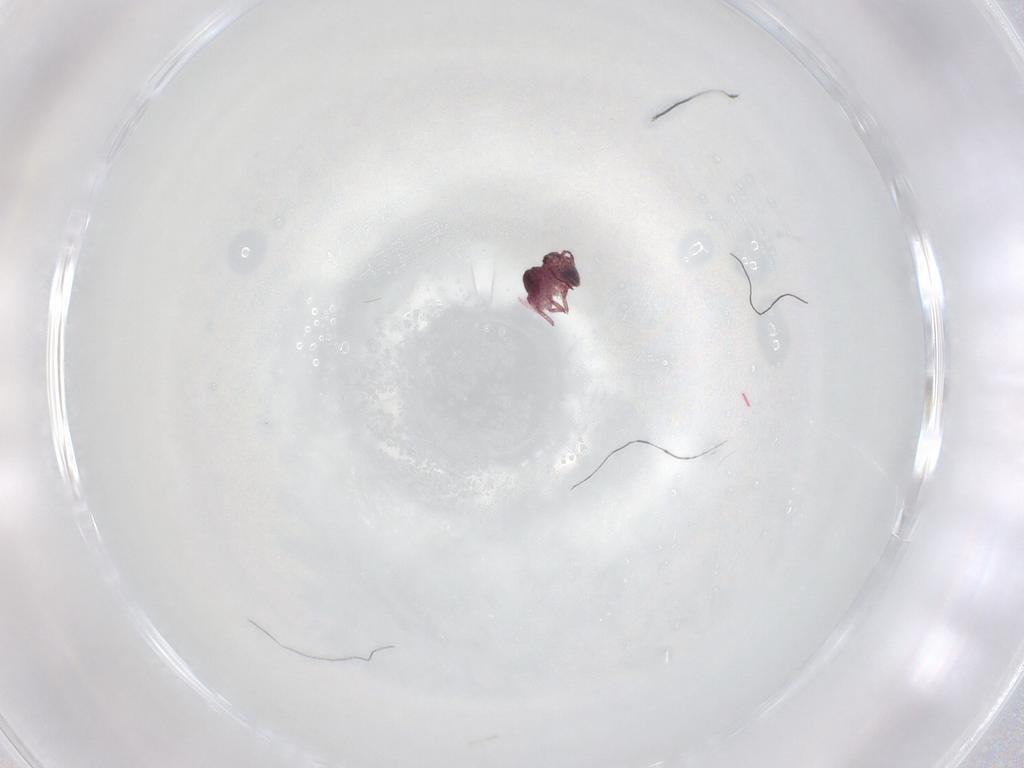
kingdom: Animalia
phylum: Arthropoda
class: Collembola
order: Symphypleona
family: Sminthurididae
